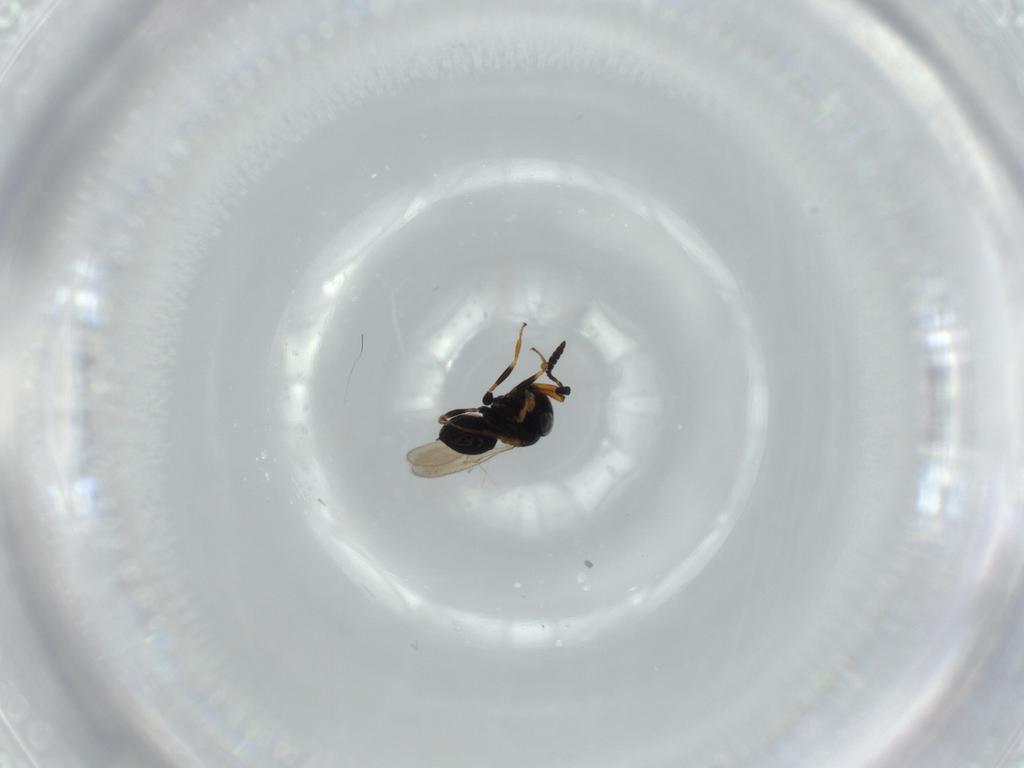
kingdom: Animalia
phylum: Arthropoda
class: Insecta
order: Hymenoptera
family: Scelionidae
